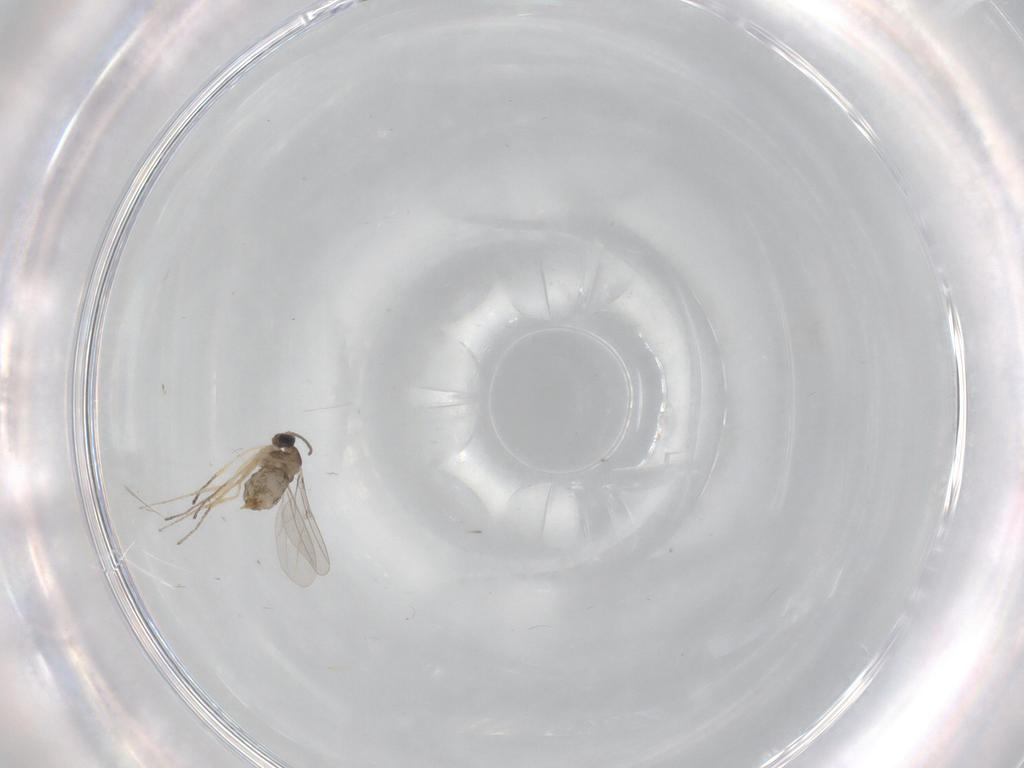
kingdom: Animalia
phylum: Arthropoda
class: Insecta
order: Diptera
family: Cecidomyiidae
